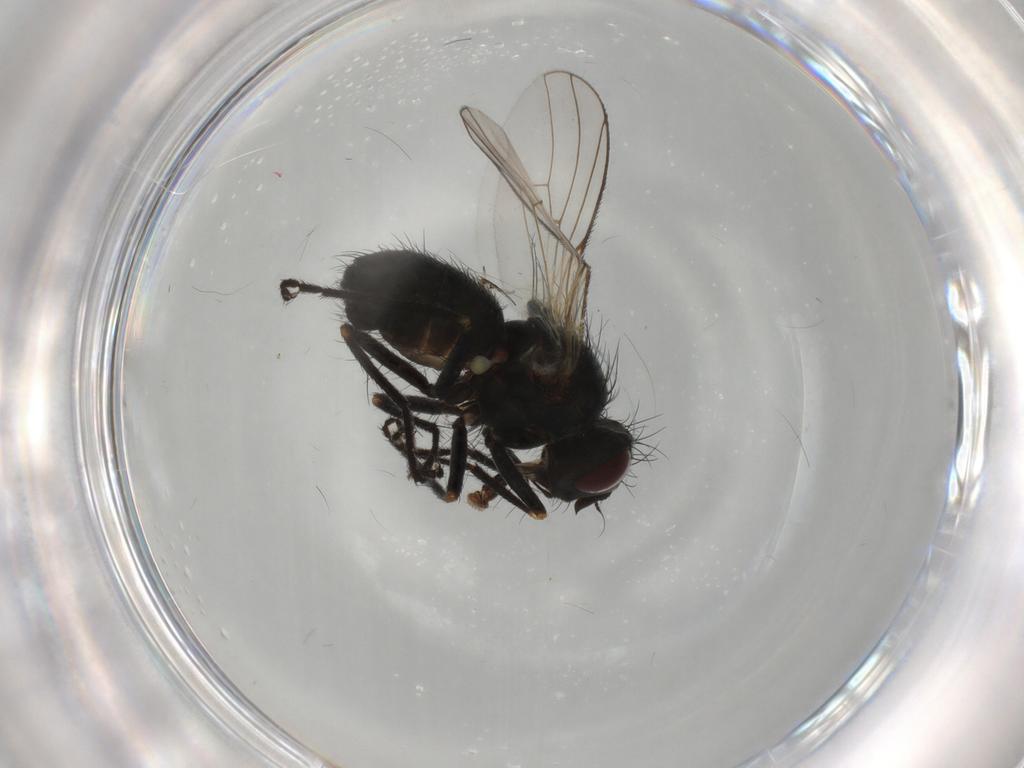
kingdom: Animalia
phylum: Arthropoda
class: Insecta
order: Diptera
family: Muscidae
